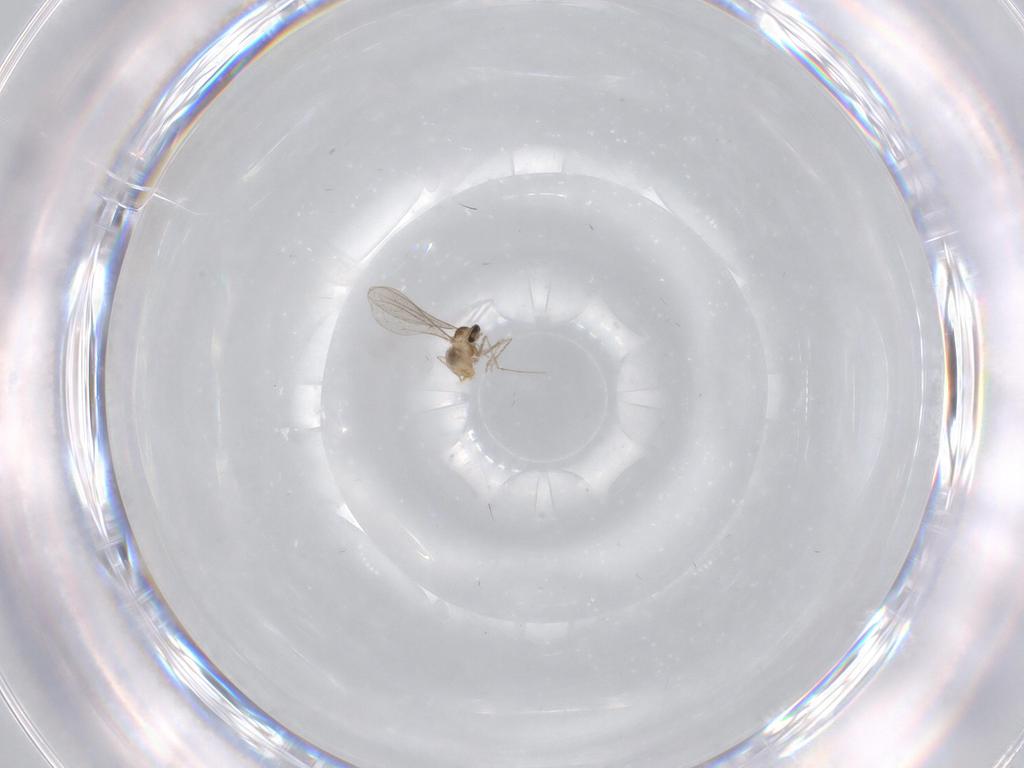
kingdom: Animalia
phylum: Arthropoda
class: Insecta
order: Diptera
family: Cecidomyiidae
